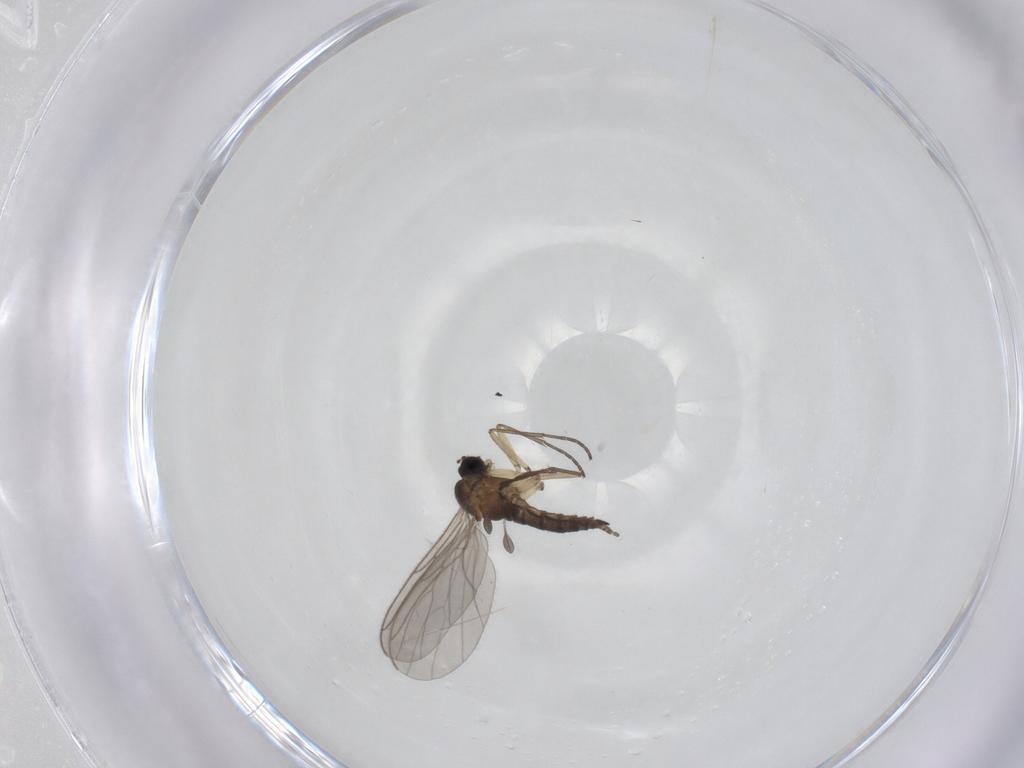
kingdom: Animalia
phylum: Arthropoda
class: Insecta
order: Diptera
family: Sciaridae
